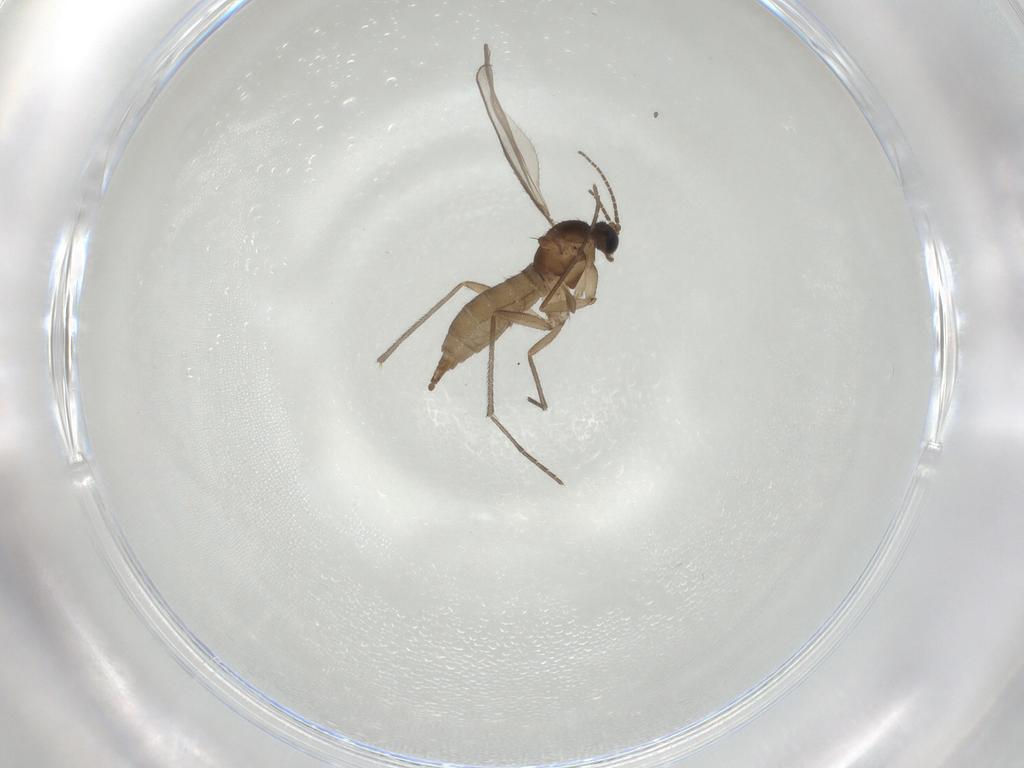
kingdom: Animalia
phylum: Arthropoda
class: Insecta
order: Diptera
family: Sciaridae
